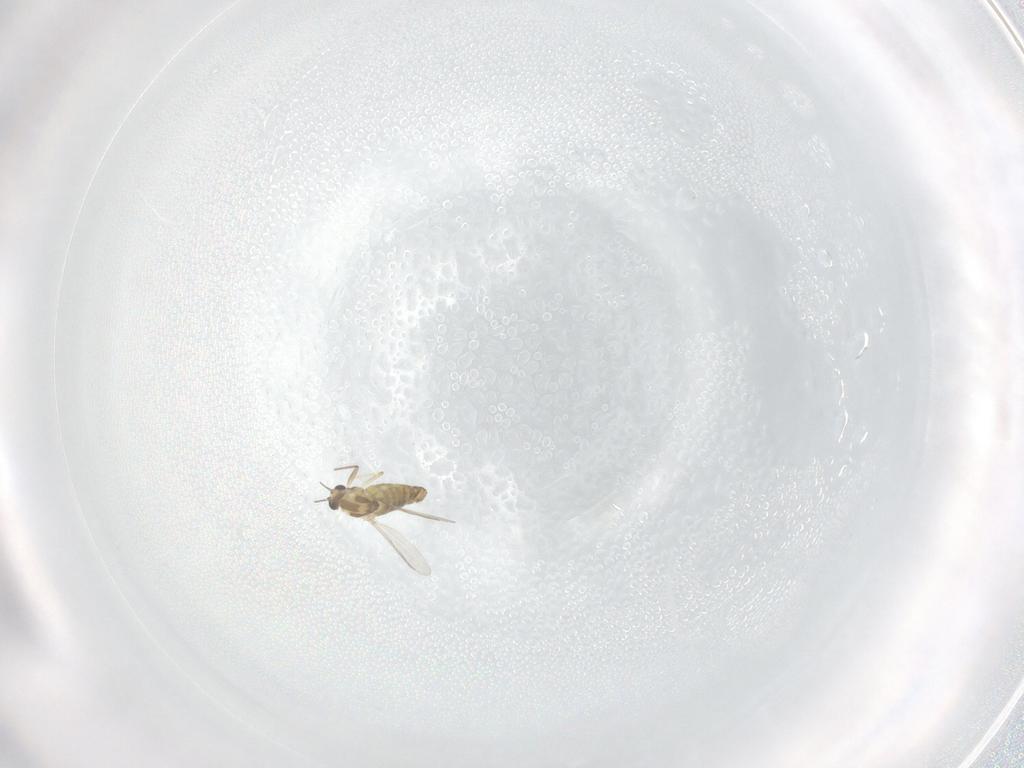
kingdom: Animalia
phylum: Arthropoda
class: Insecta
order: Diptera
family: Chironomidae
